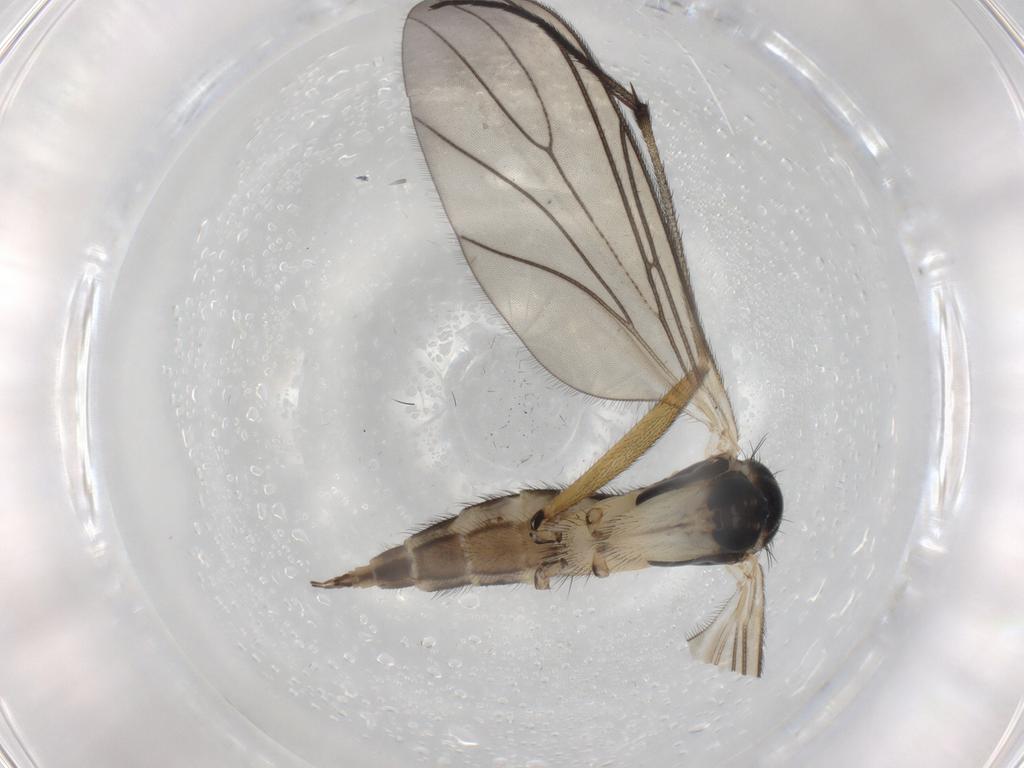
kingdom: Animalia
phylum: Arthropoda
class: Insecta
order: Diptera
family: Sciaridae
